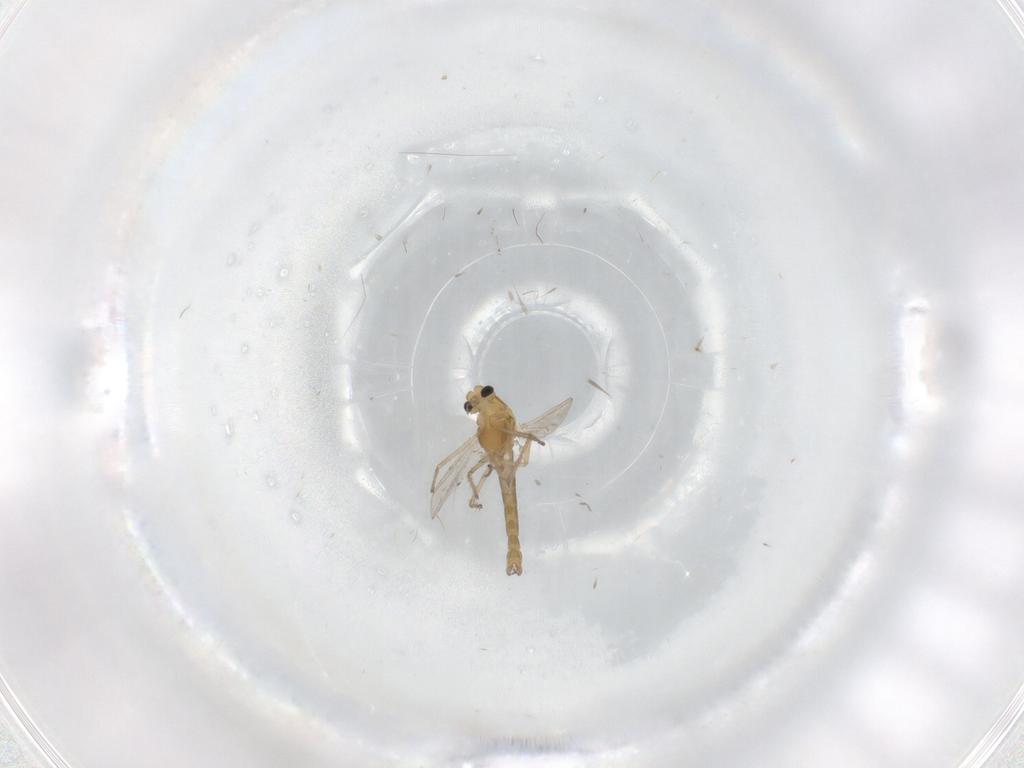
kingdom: Animalia
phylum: Arthropoda
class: Insecta
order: Diptera
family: Chironomidae
